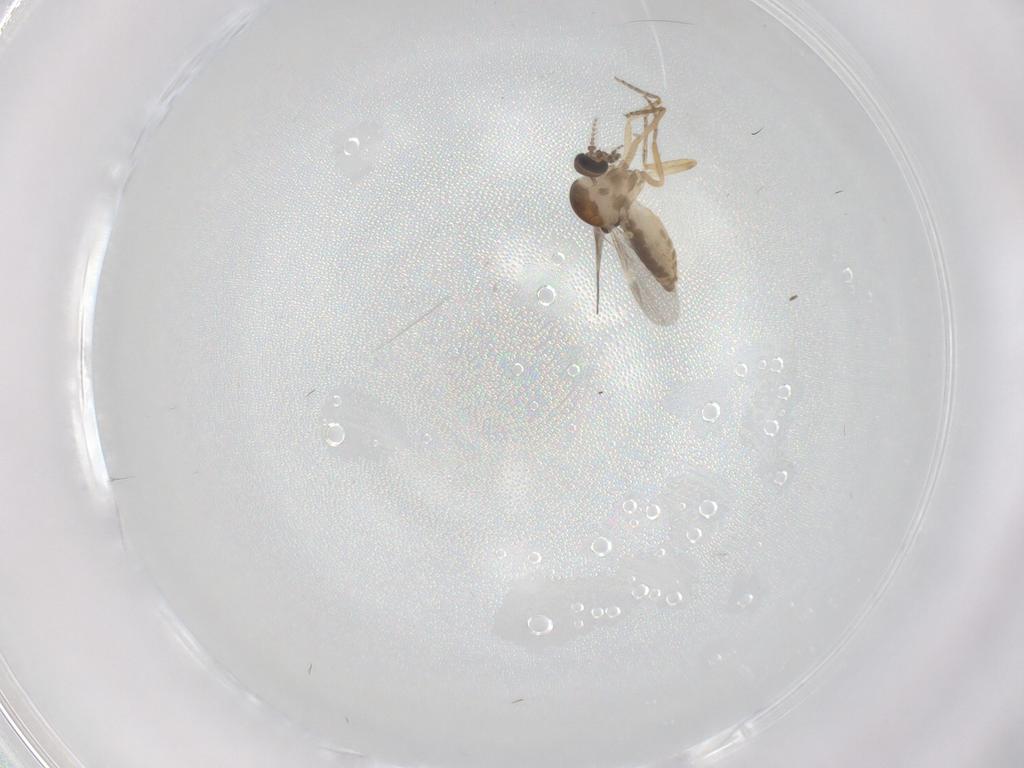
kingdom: Animalia
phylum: Arthropoda
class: Insecta
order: Diptera
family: Ceratopogonidae
